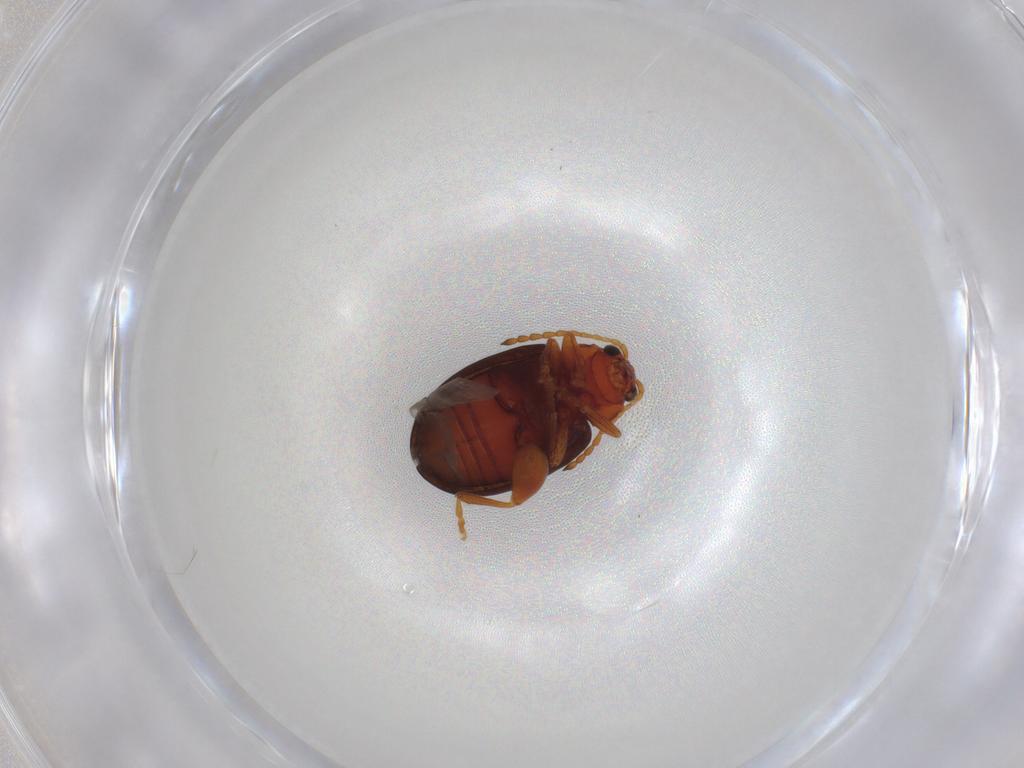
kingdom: Animalia
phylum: Arthropoda
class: Insecta
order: Coleoptera
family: Chrysomelidae
